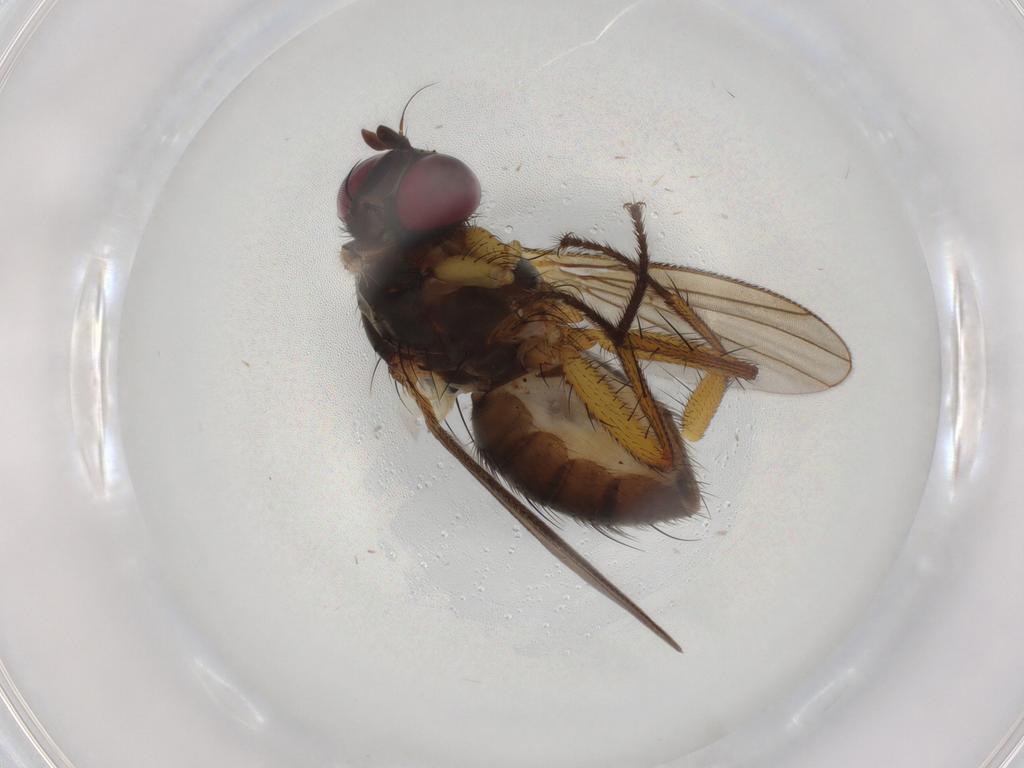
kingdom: Animalia
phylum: Arthropoda
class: Insecta
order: Diptera
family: Muscidae
